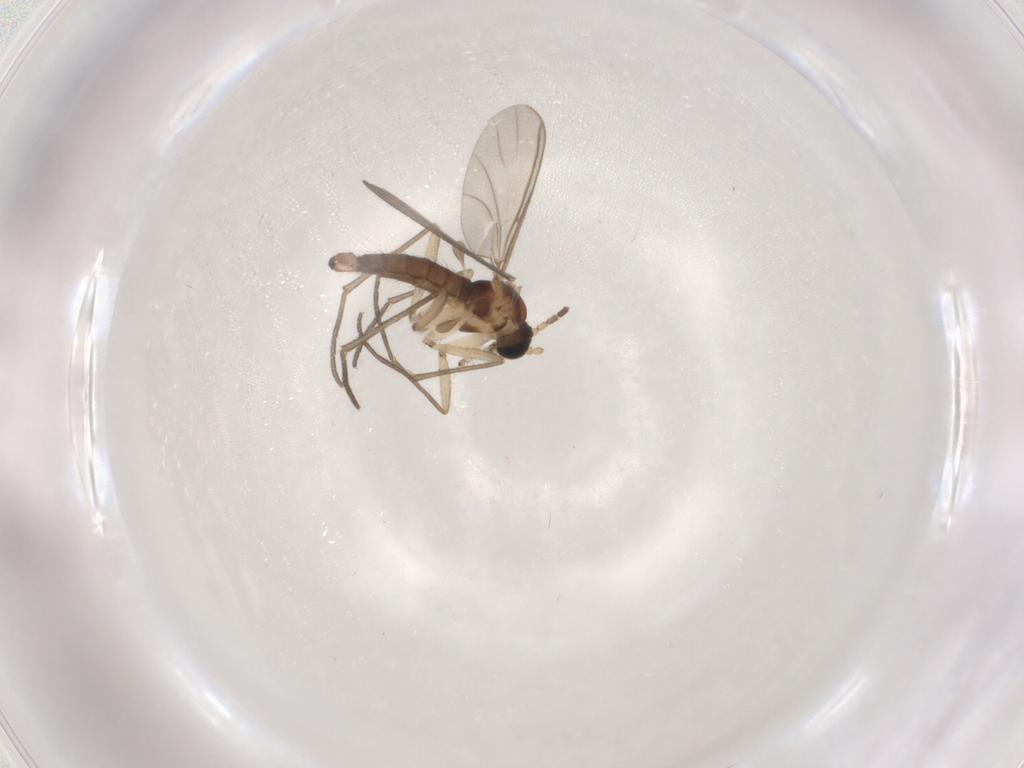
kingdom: Animalia
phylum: Arthropoda
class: Insecta
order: Diptera
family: Sciaridae
